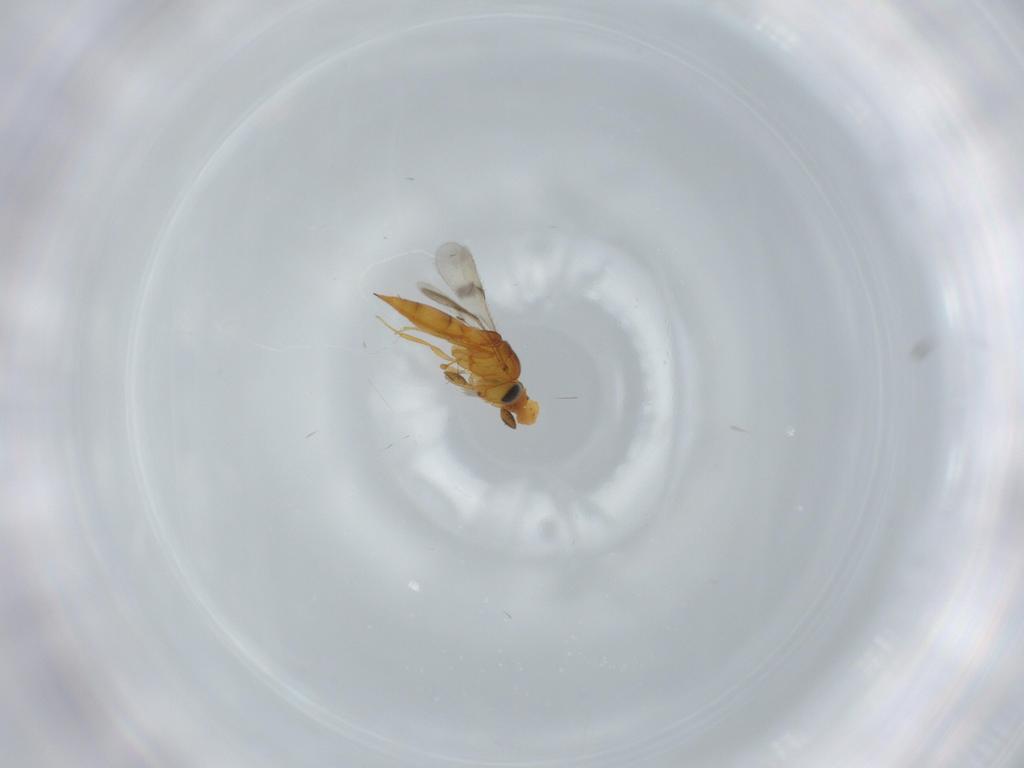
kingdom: Animalia
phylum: Arthropoda
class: Insecta
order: Hymenoptera
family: Scelionidae
